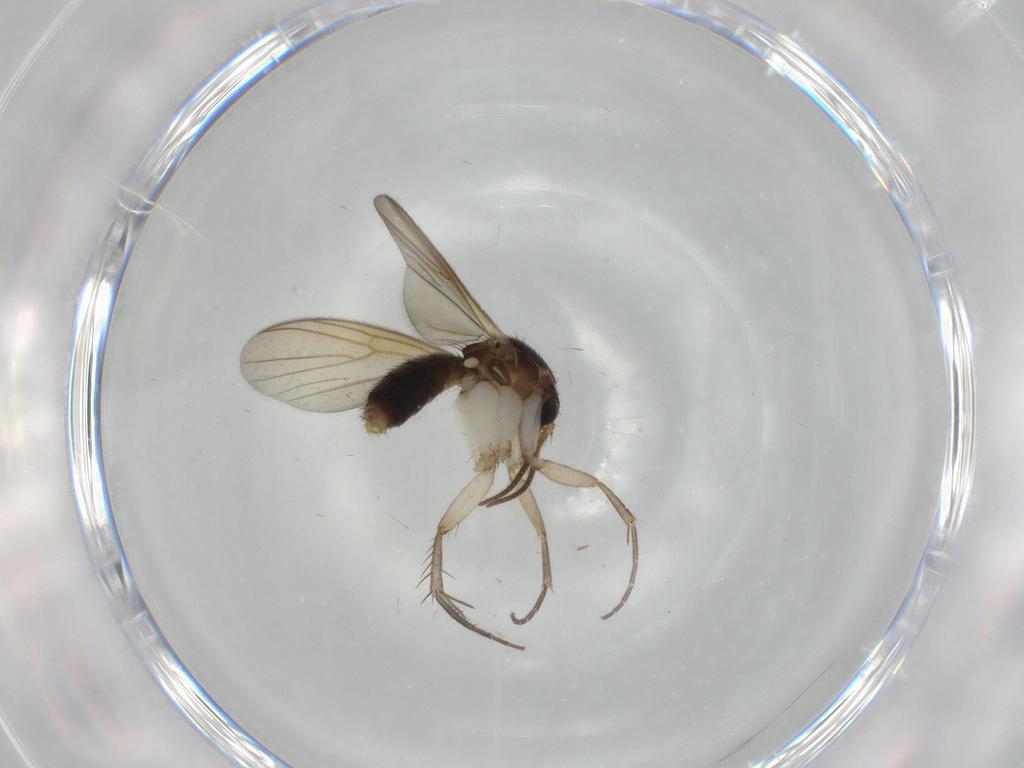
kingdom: Animalia
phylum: Arthropoda
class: Insecta
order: Diptera
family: Mycetophilidae
